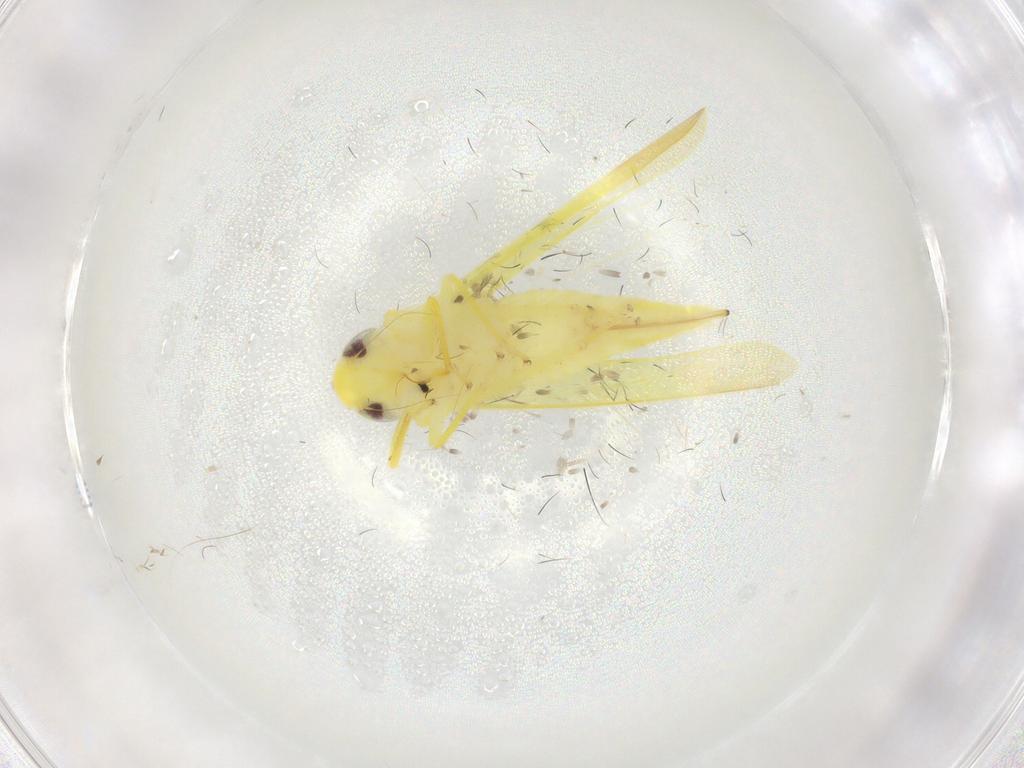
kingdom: Animalia
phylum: Arthropoda
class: Insecta
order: Hemiptera
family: Cicadellidae
